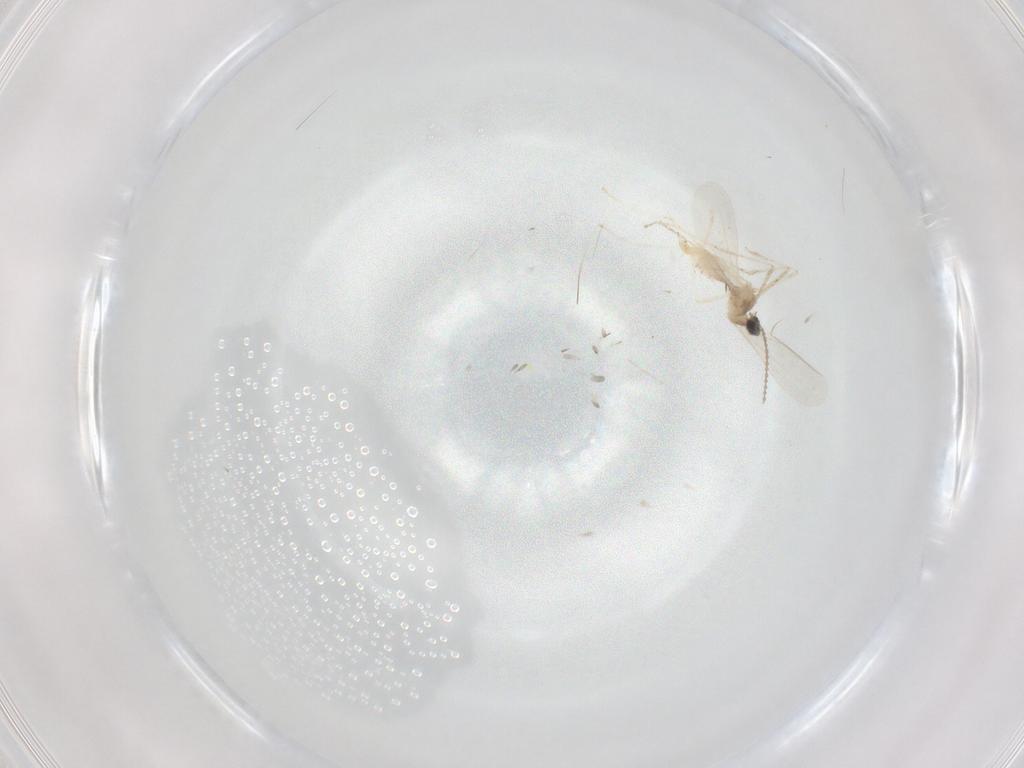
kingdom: Animalia
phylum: Arthropoda
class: Insecta
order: Diptera
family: Cecidomyiidae
